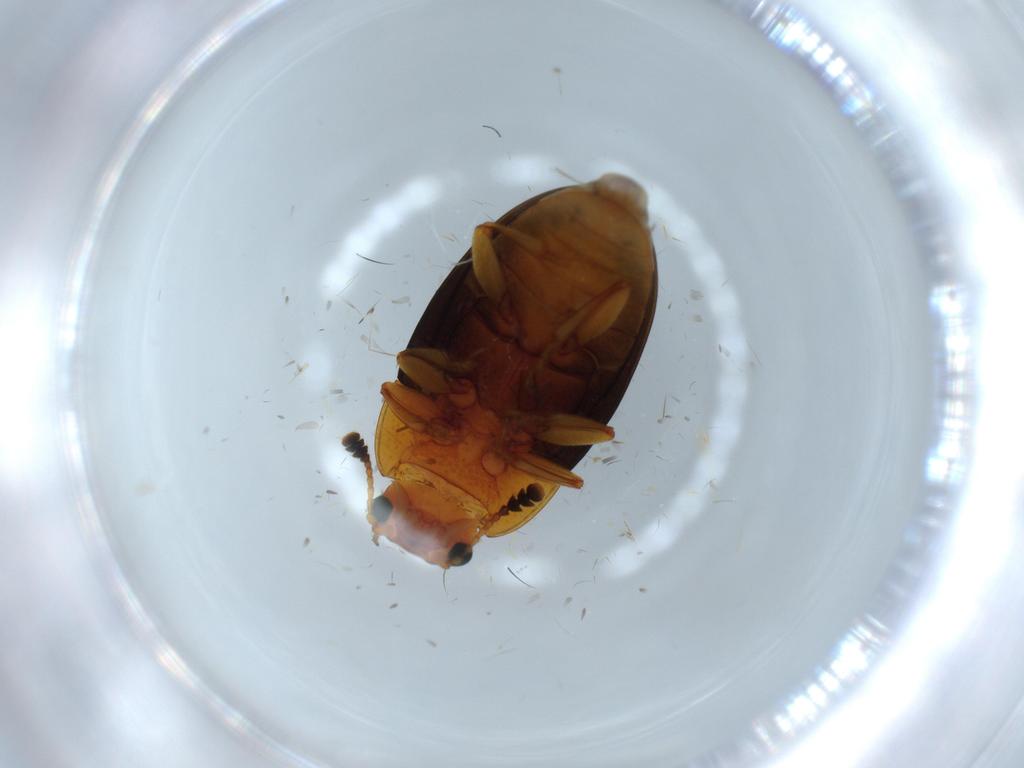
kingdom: Animalia
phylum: Arthropoda
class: Insecta
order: Coleoptera
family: Erotylidae
